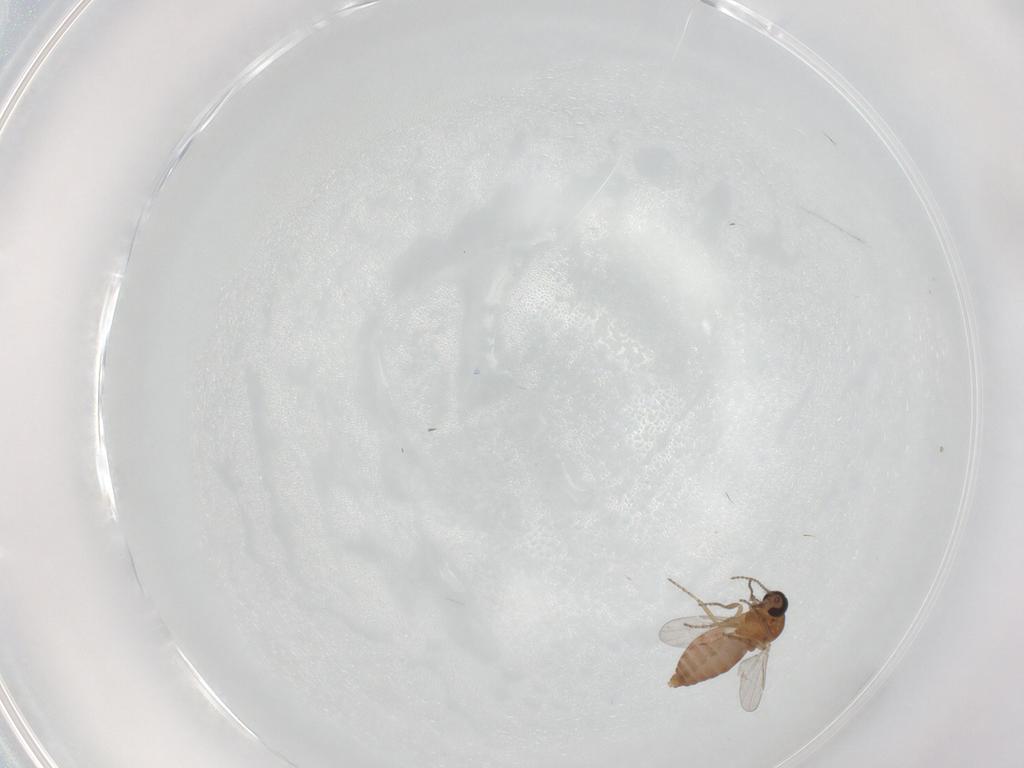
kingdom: Animalia
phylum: Arthropoda
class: Insecta
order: Diptera
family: Ceratopogonidae
